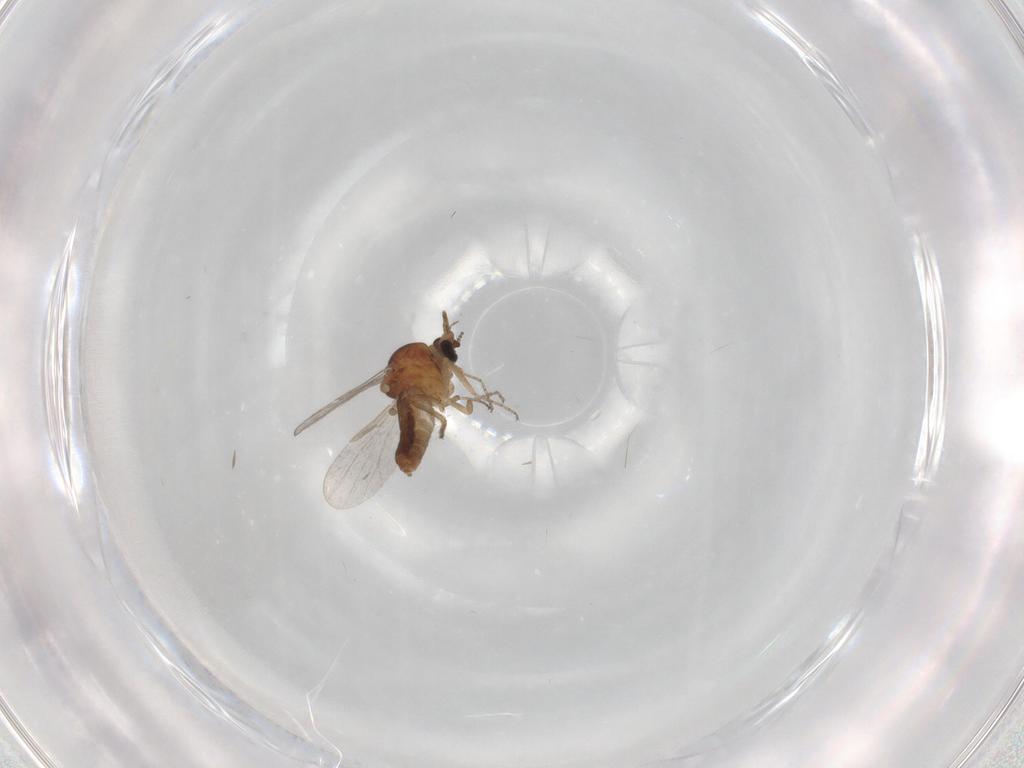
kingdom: Animalia
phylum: Arthropoda
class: Insecta
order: Diptera
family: Ceratopogonidae
